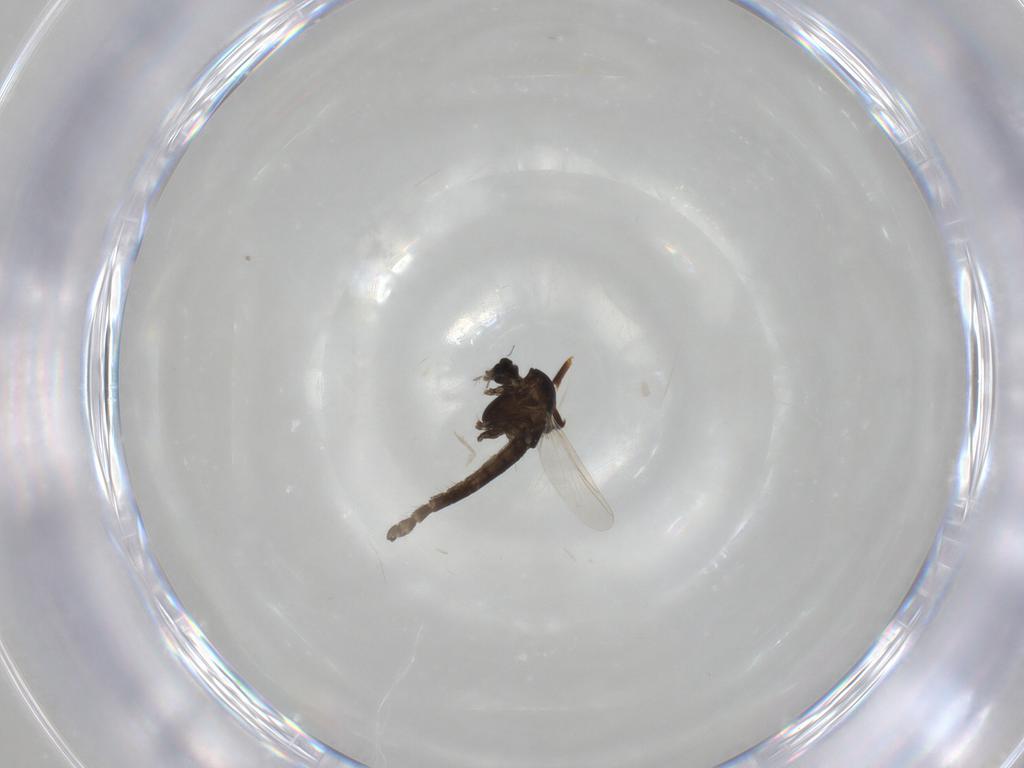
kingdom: Animalia
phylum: Arthropoda
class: Insecta
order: Diptera
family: Chironomidae
